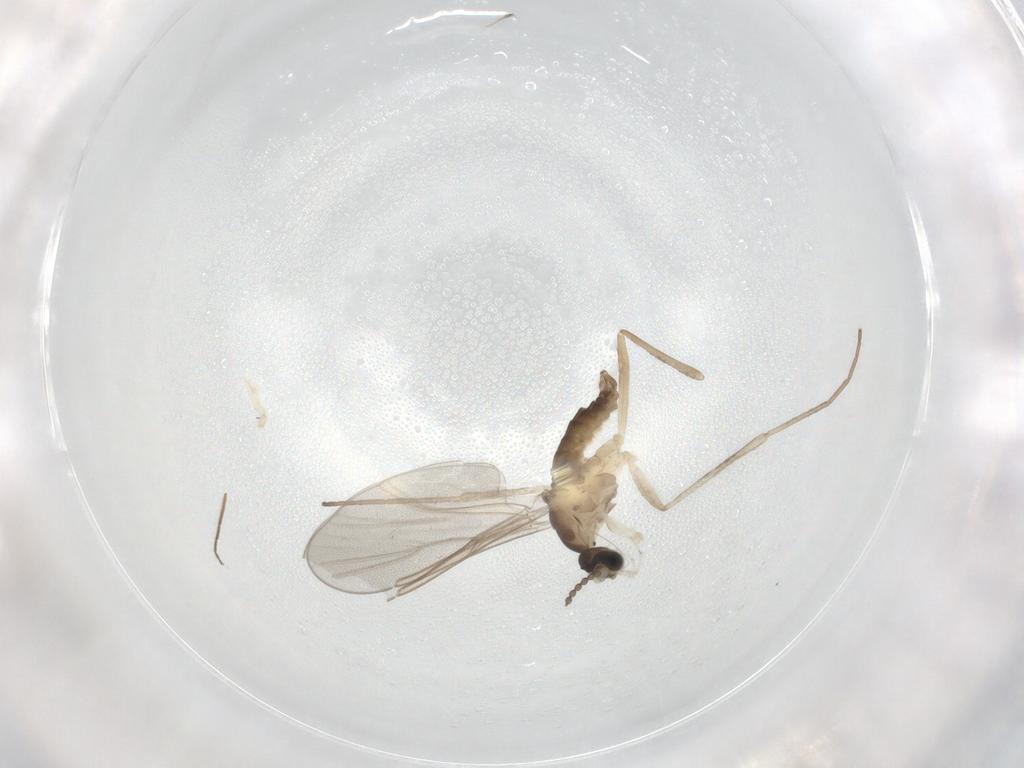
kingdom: Animalia
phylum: Arthropoda
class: Insecta
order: Diptera
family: Cecidomyiidae
